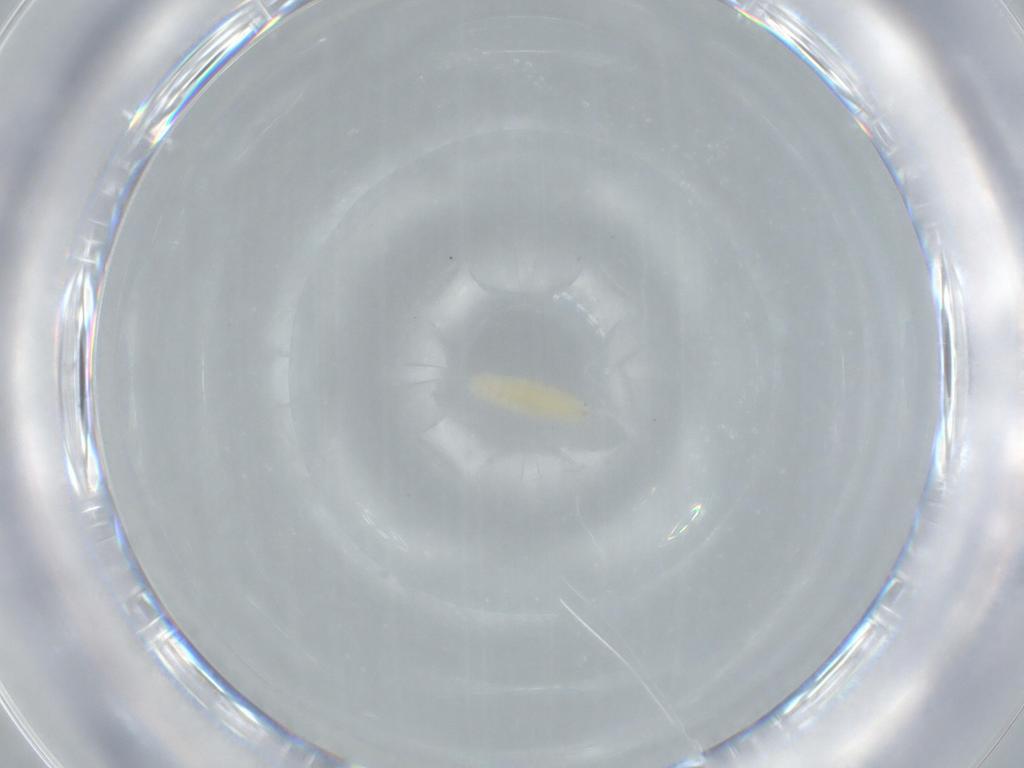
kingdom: Animalia
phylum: Arthropoda
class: Insecta
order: Diptera
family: Cecidomyiidae
